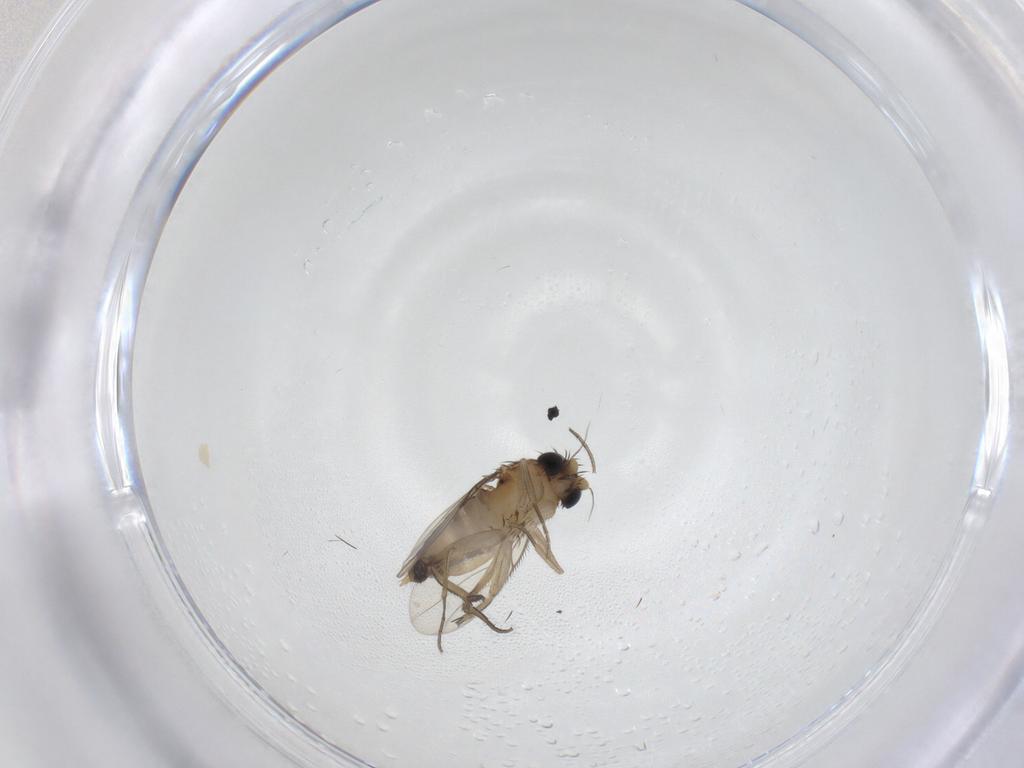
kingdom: Animalia
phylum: Arthropoda
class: Insecta
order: Diptera
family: Phoridae
